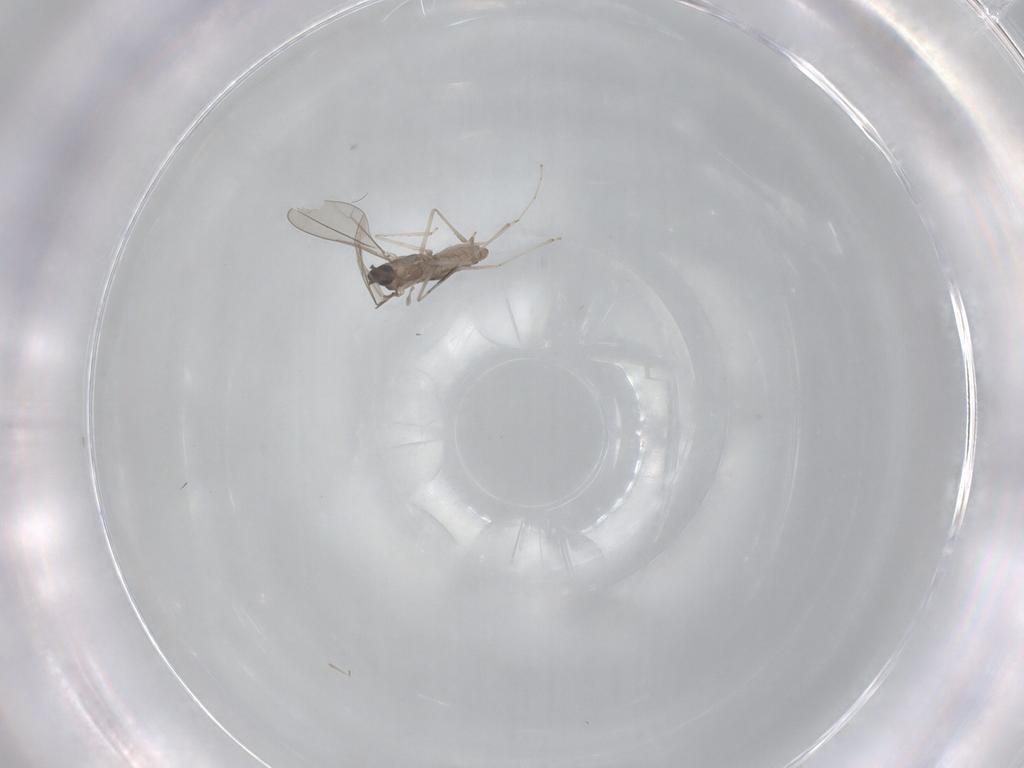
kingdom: Animalia
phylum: Arthropoda
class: Insecta
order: Diptera
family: Cecidomyiidae
